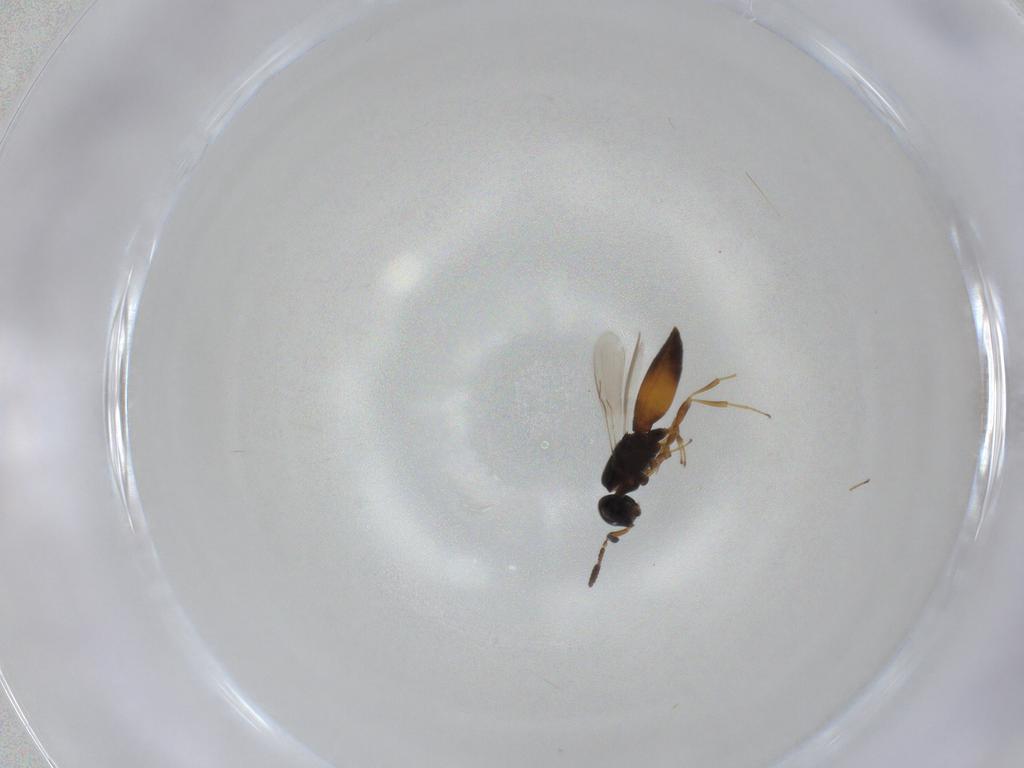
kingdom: Animalia
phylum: Arthropoda
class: Insecta
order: Hymenoptera
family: Scelionidae
